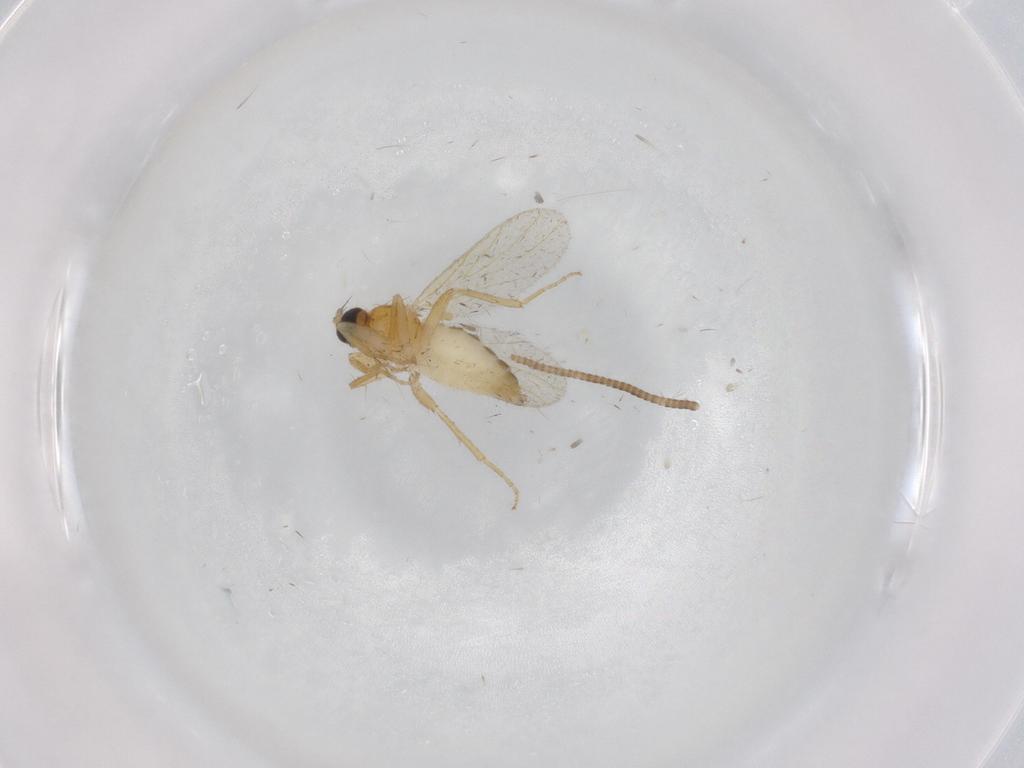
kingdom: Animalia
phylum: Arthropoda
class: Insecta
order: Diptera
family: Hybotidae
